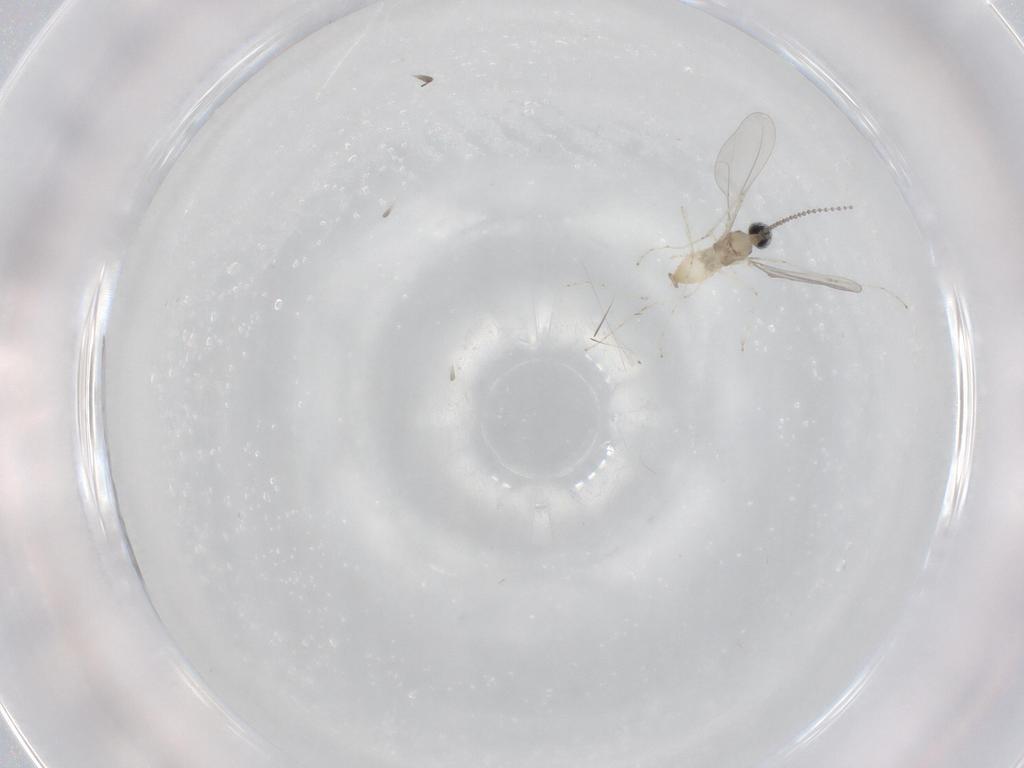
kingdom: Animalia
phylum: Arthropoda
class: Insecta
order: Diptera
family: Cecidomyiidae
